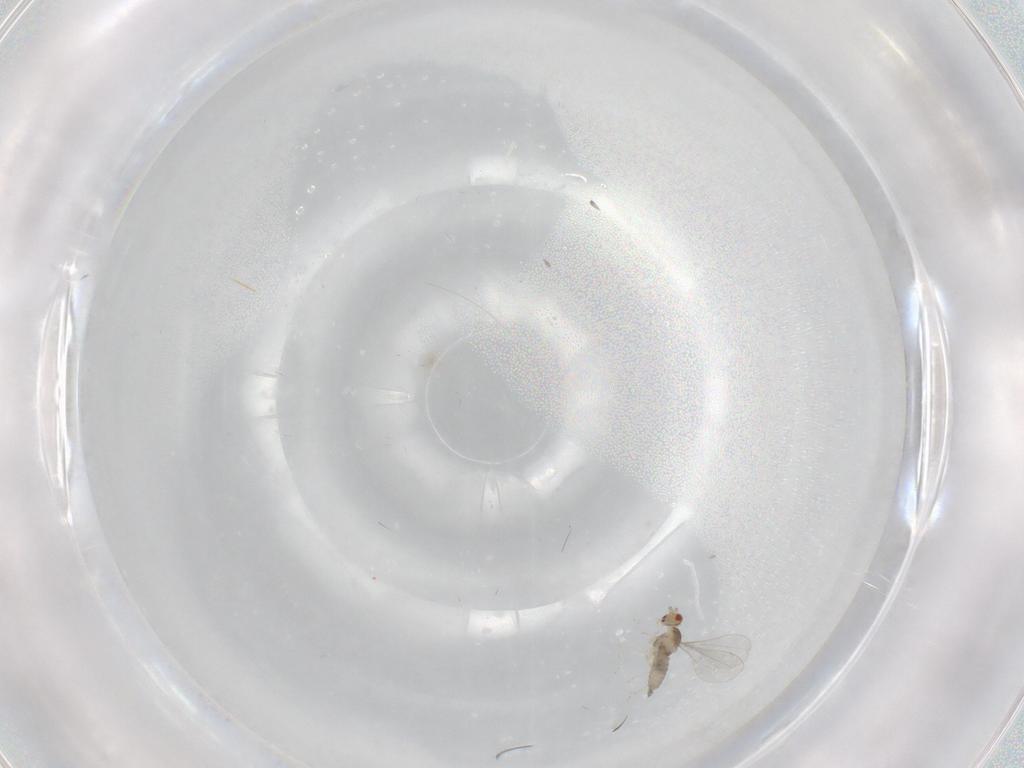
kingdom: Animalia
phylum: Arthropoda
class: Insecta
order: Diptera
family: Cecidomyiidae
